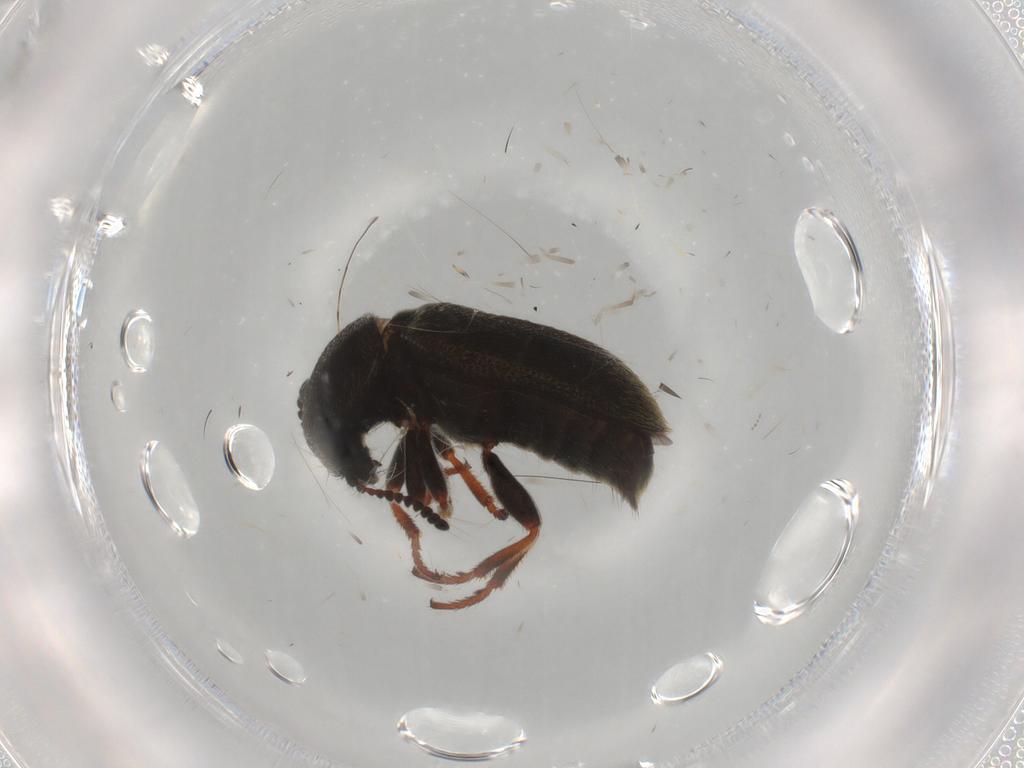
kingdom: Animalia
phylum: Arthropoda
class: Insecta
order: Coleoptera
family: Melyridae
